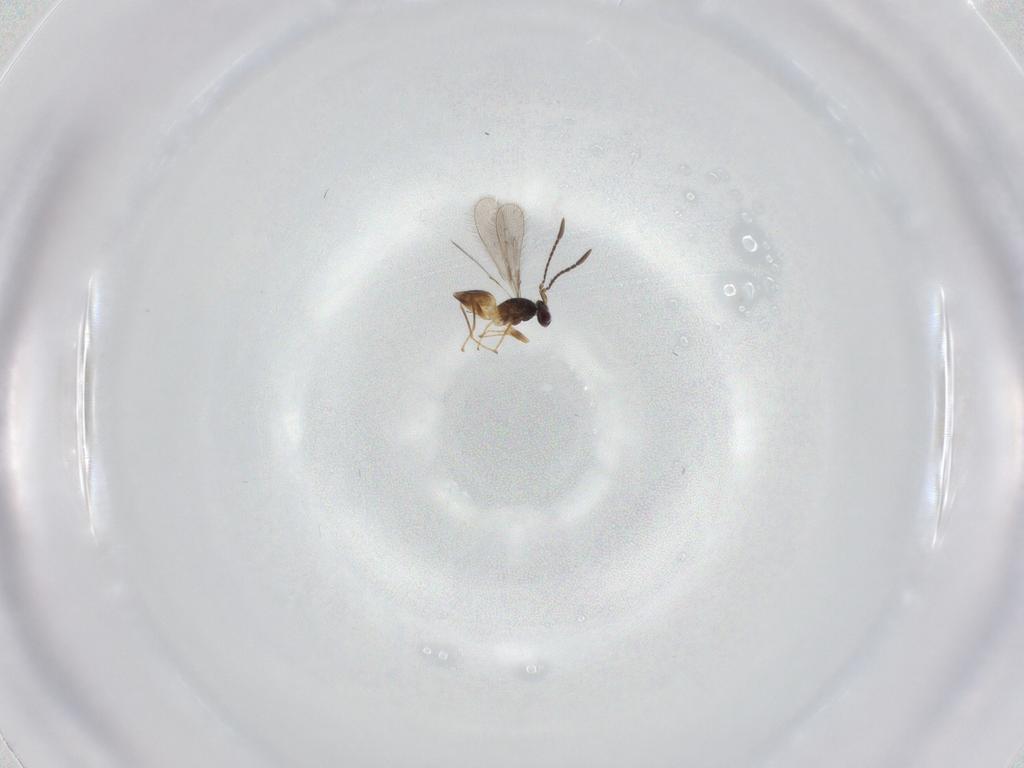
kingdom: Animalia
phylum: Arthropoda
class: Insecta
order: Hymenoptera
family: Mymaridae
